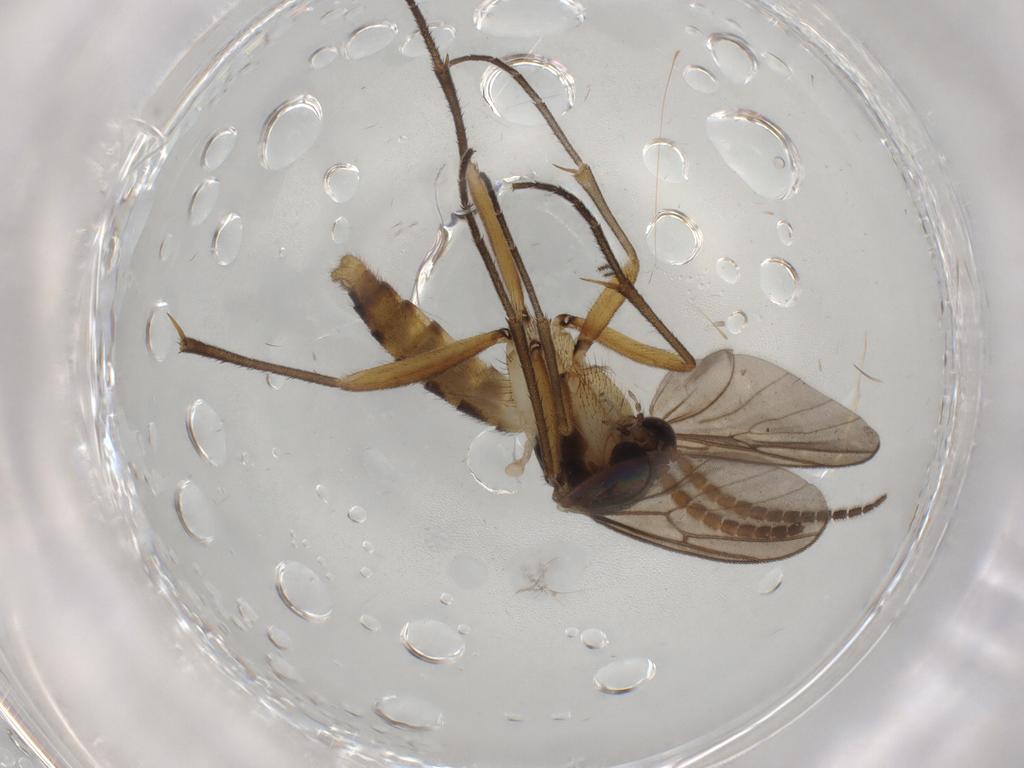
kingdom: Animalia
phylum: Arthropoda
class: Insecta
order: Diptera
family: Mycetophilidae
